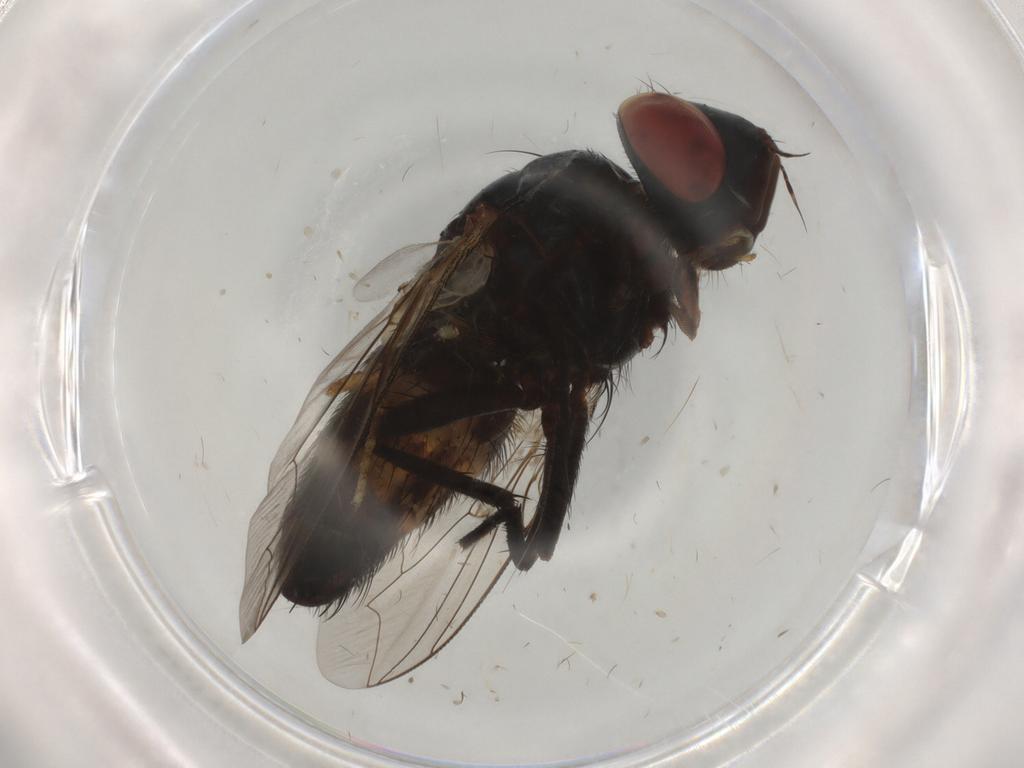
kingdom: Animalia
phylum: Arthropoda
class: Insecta
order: Diptera
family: Sarcophagidae
